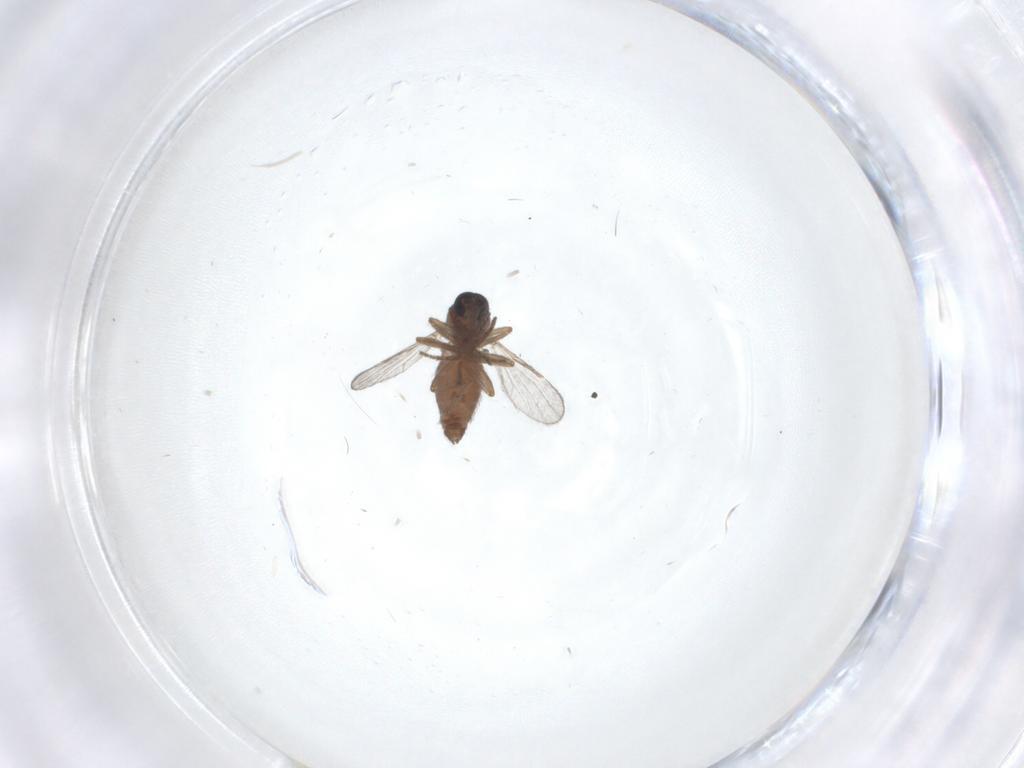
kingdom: Animalia
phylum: Arthropoda
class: Insecta
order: Diptera
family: Ceratopogonidae
